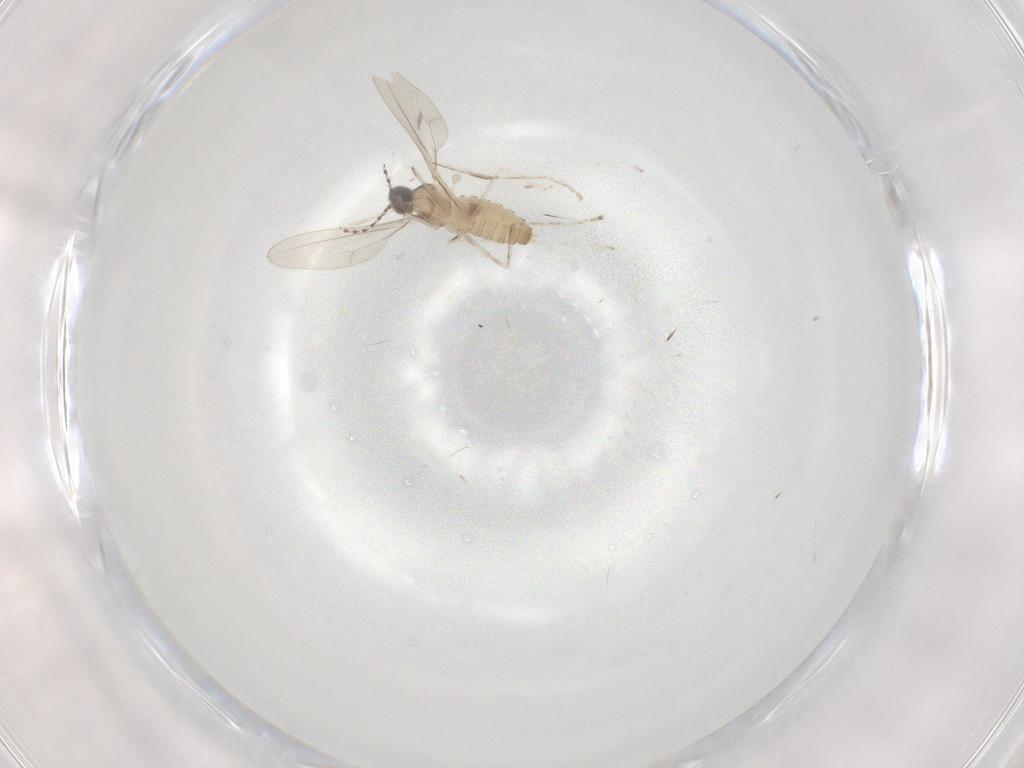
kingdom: Animalia
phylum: Arthropoda
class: Insecta
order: Diptera
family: Cecidomyiidae
